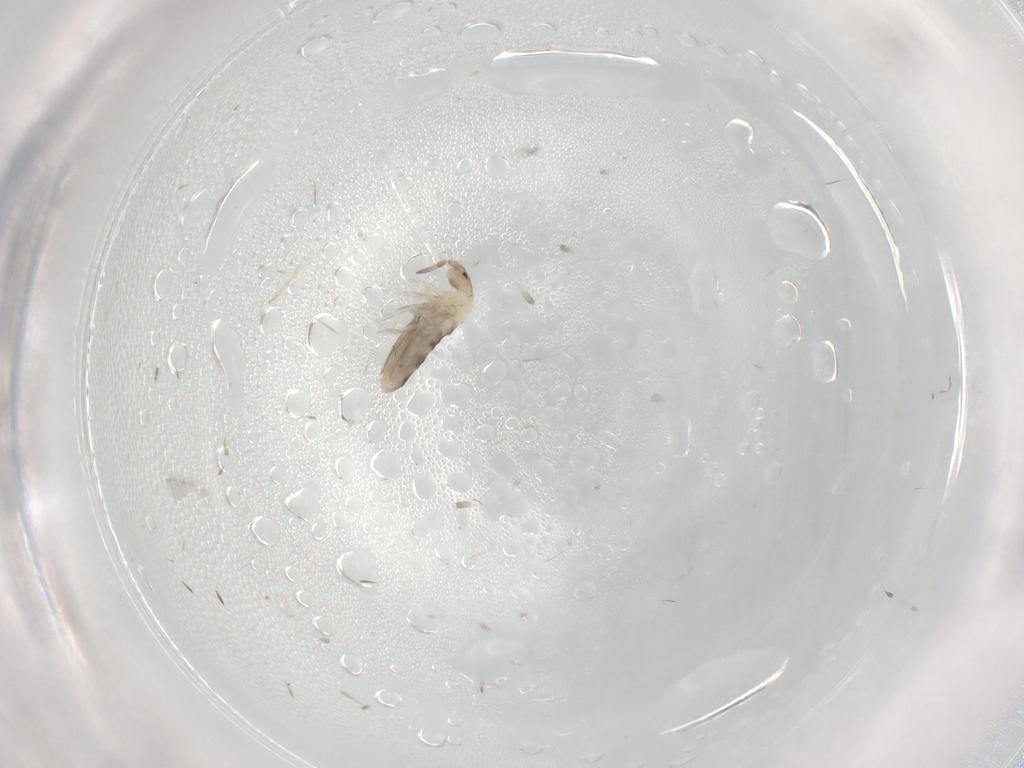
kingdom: Animalia
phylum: Arthropoda
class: Collembola
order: Entomobryomorpha
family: Entomobryidae
